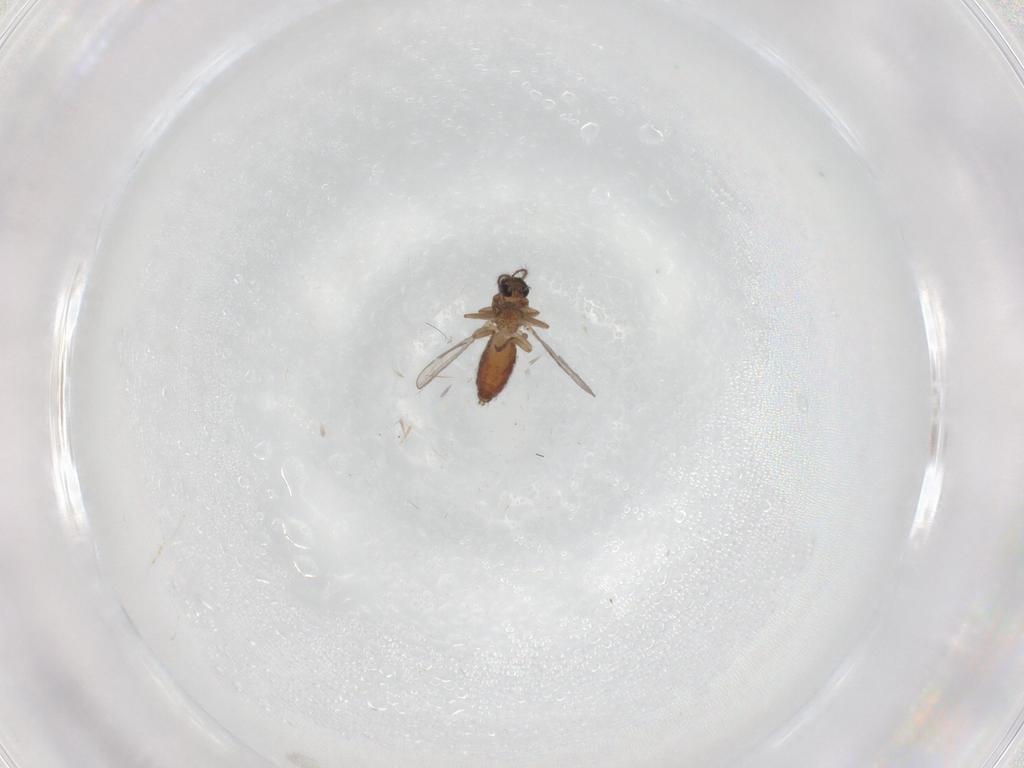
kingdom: Animalia
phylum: Arthropoda
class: Insecta
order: Diptera
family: Ceratopogonidae
